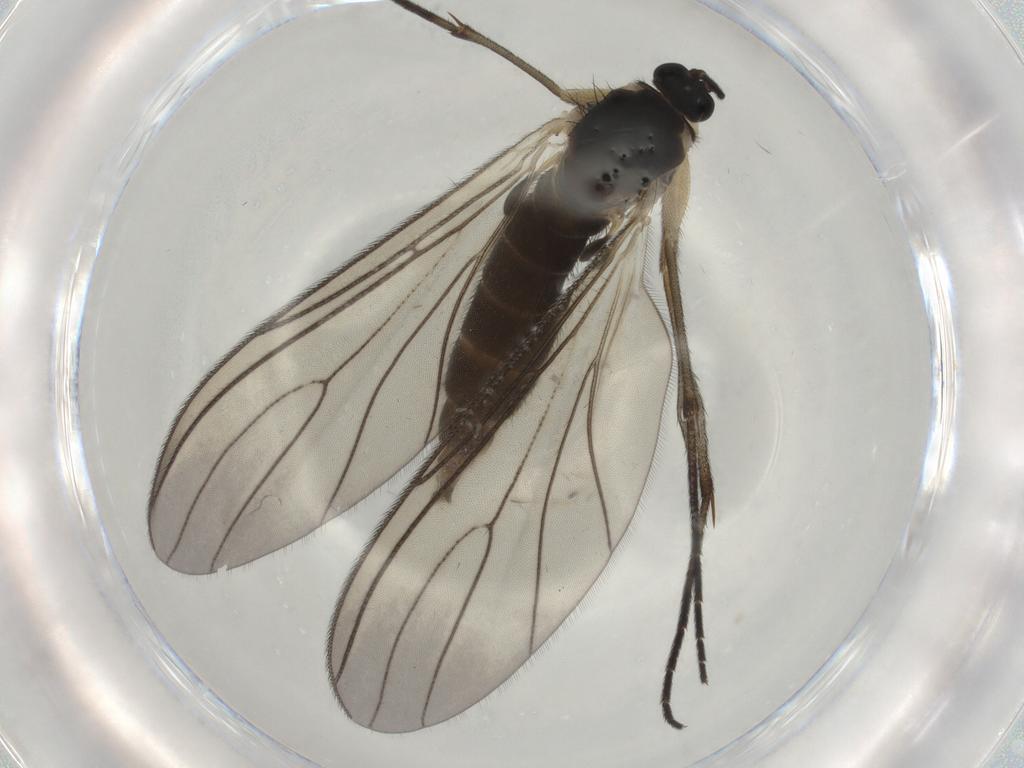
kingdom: Animalia
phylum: Arthropoda
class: Insecta
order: Diptera
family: Sciaridae
